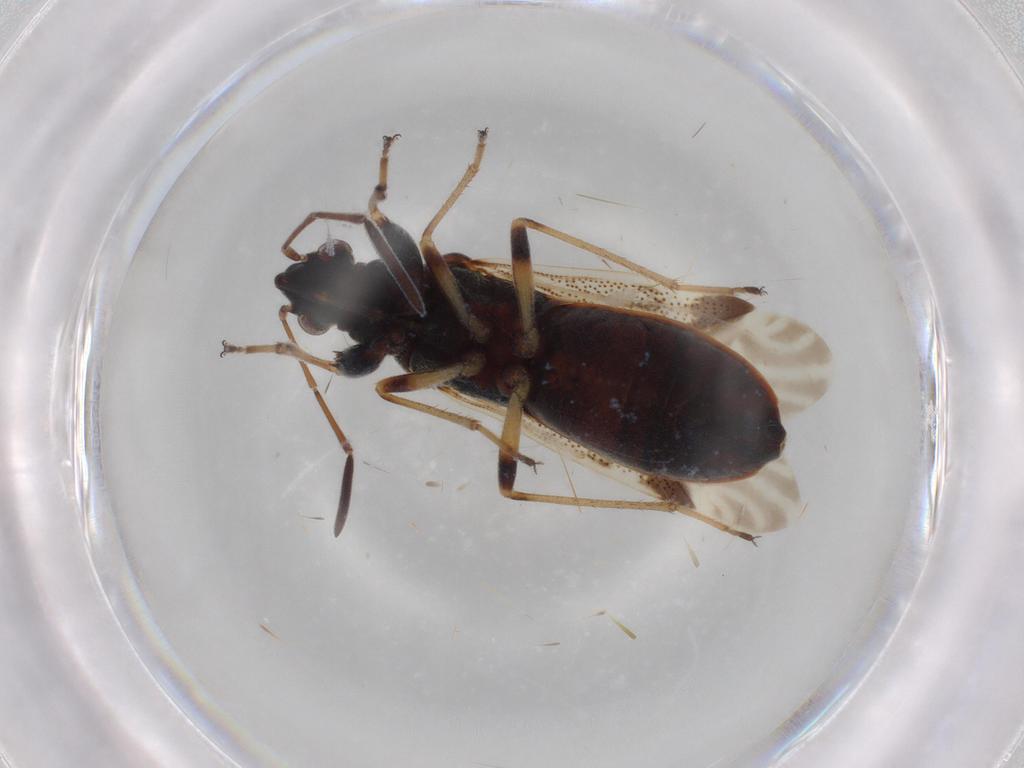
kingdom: Animalia
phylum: Arthropoda
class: Insecta
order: Hemiptera
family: Rhyparochromidae
